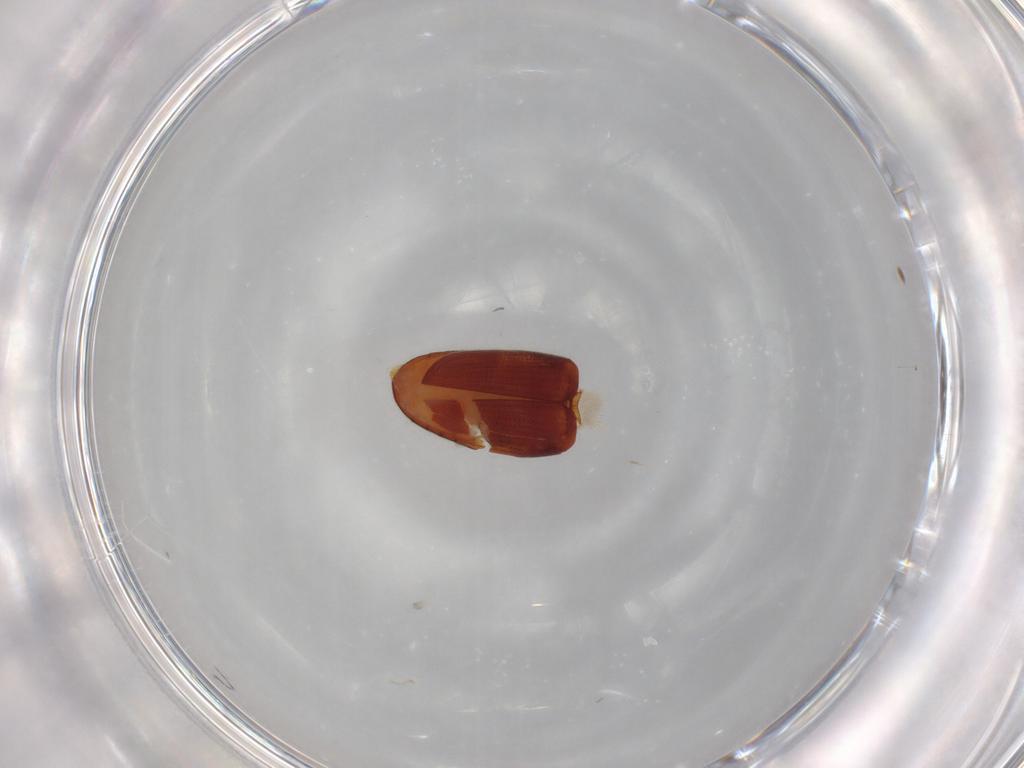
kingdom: Animalia
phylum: Arthropoda
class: Insecta
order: Coleoptera
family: Throscidae
